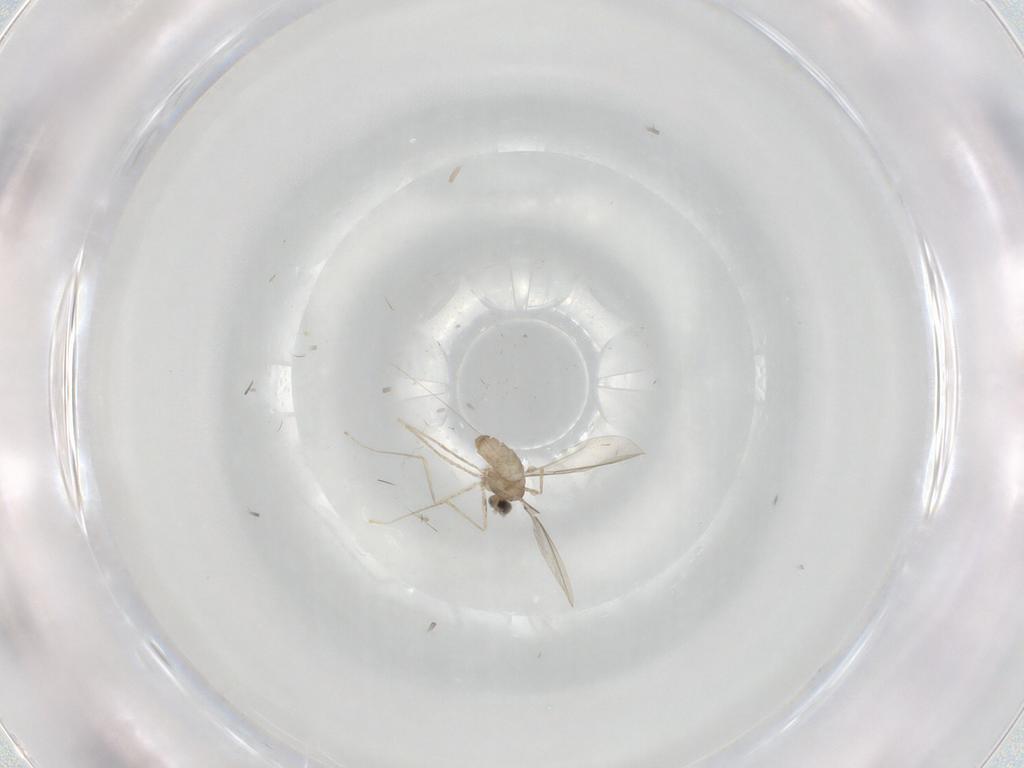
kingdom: Animalia
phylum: Arthropoda
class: Insecta
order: Diptera
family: Cecidomyiidae
